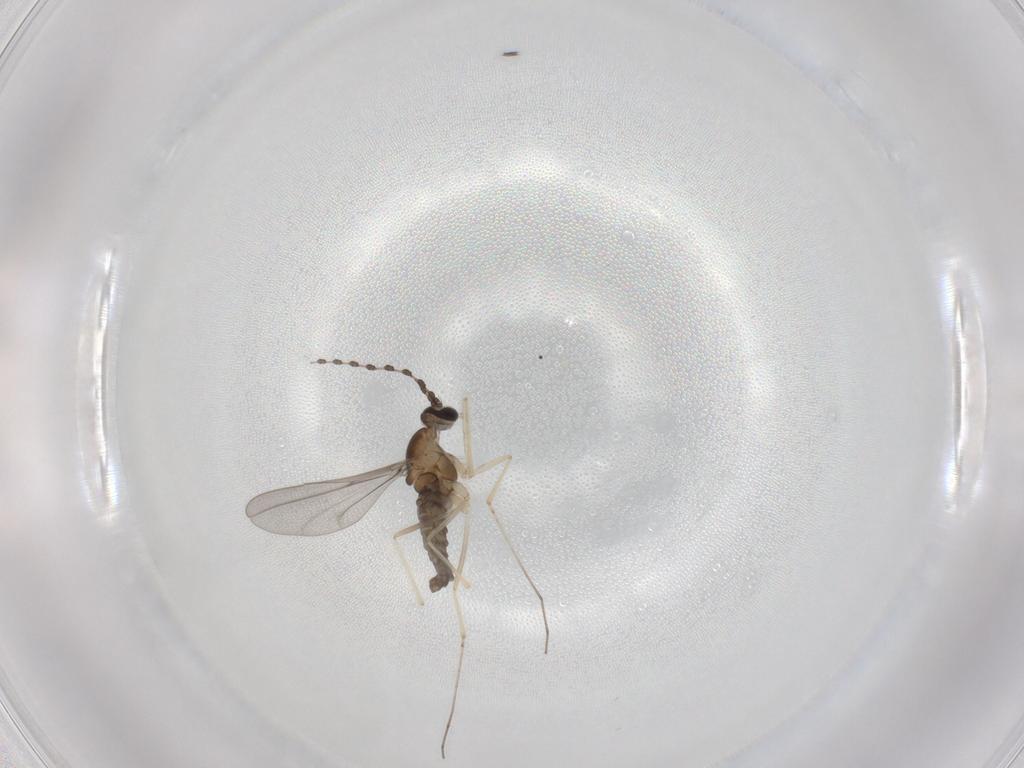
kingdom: Animalia
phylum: Arthropoda
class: Insecta
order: Diptera
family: Cecidomyiidae
